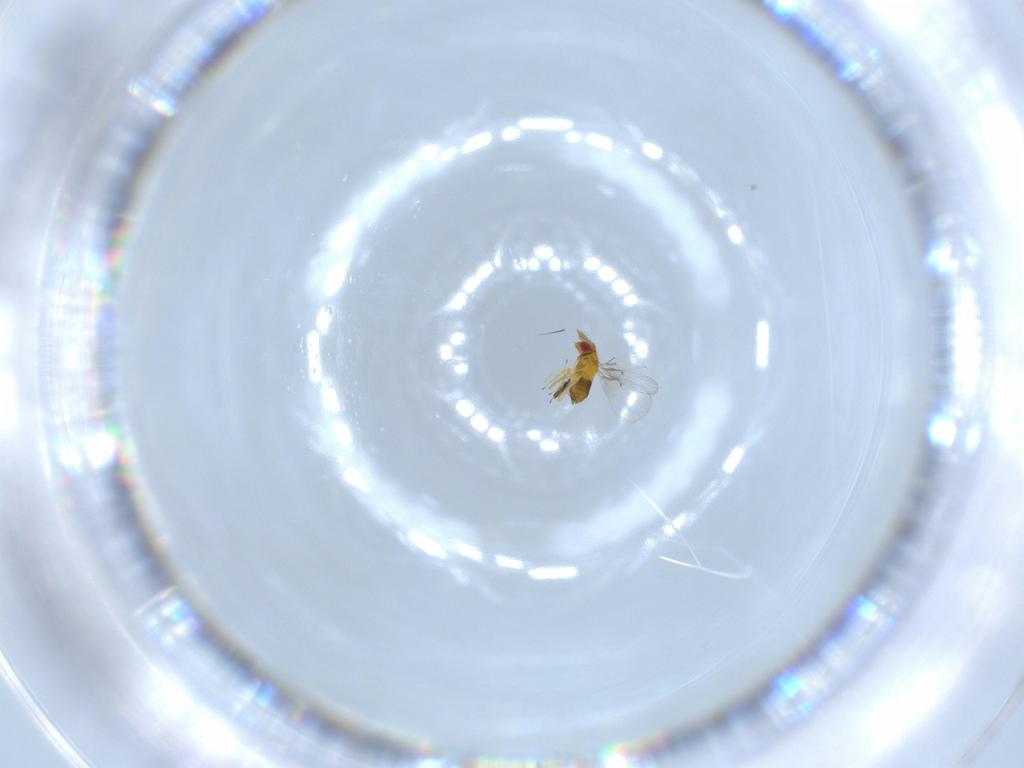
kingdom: Animalia
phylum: Arthropoda
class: Insecta
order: Hymenoptera
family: Trichogrammatidae
